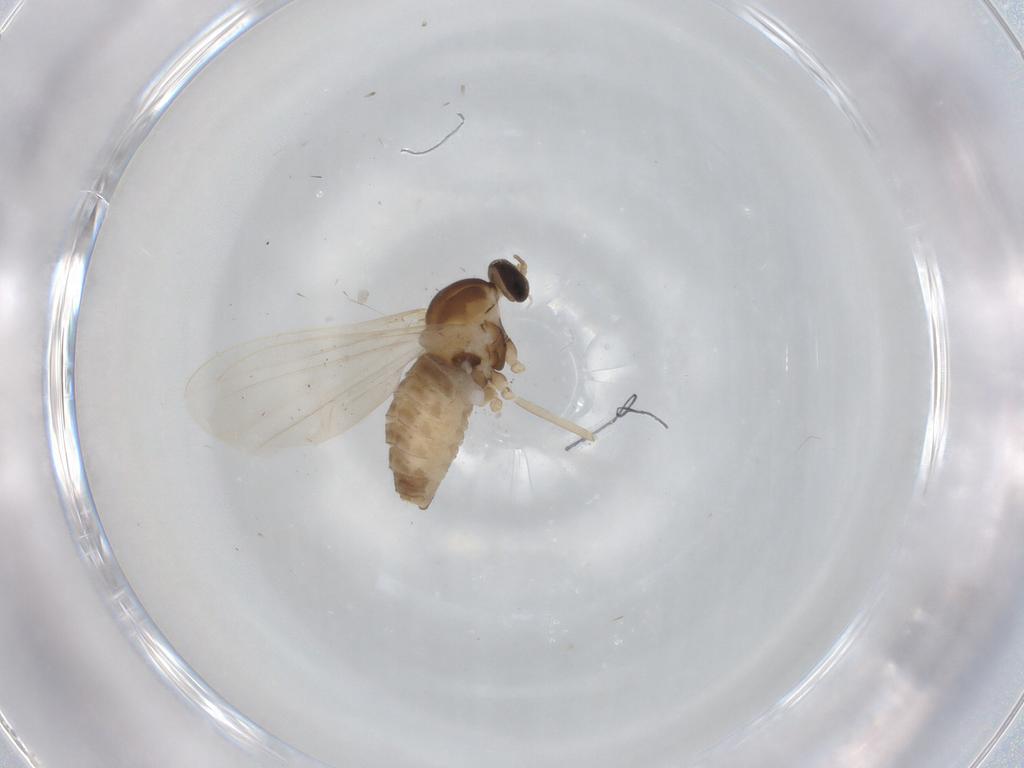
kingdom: Animalia
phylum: Arthropoda
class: Insecta
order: Diptera
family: Cecidomyiidae
